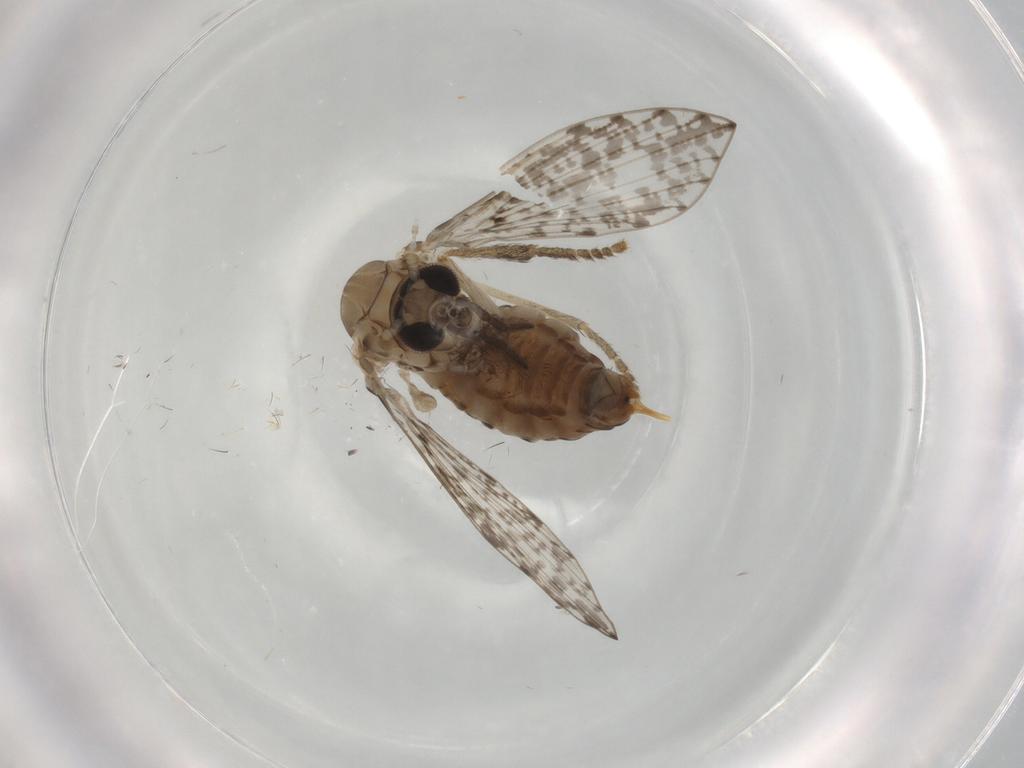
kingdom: Animalia
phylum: Arthropoda
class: Insecta
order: Diptera
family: Psychodidae
